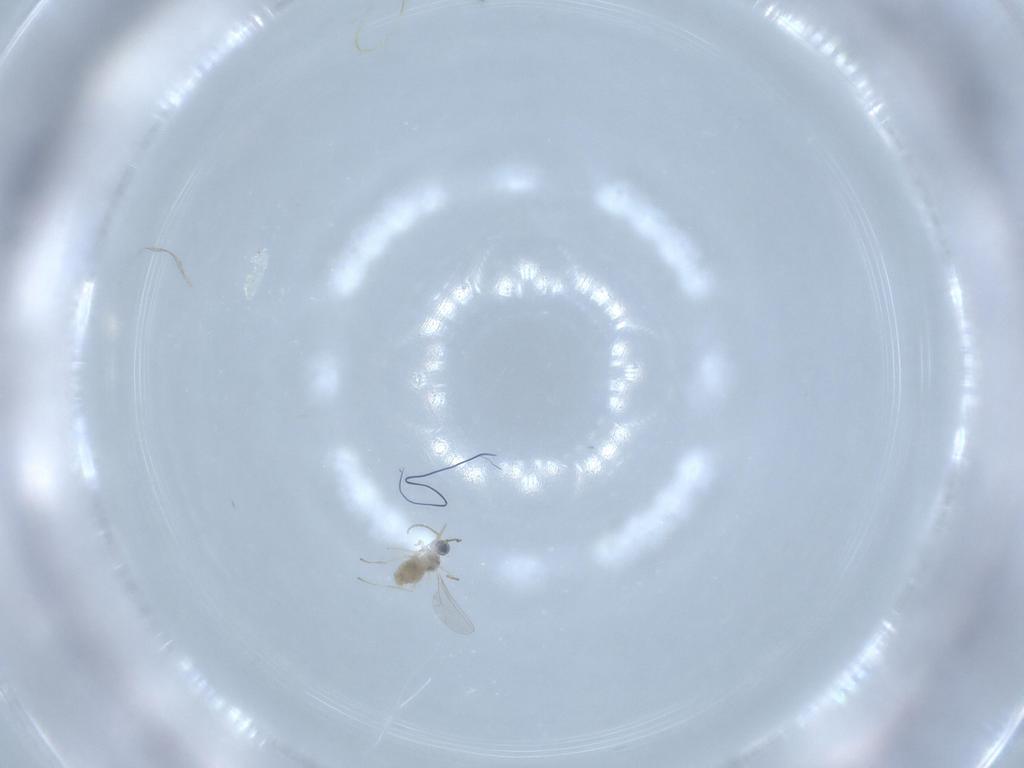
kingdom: Animalia
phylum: Arthropoda
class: Insecta
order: Diptera
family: Cecidomyiidae
